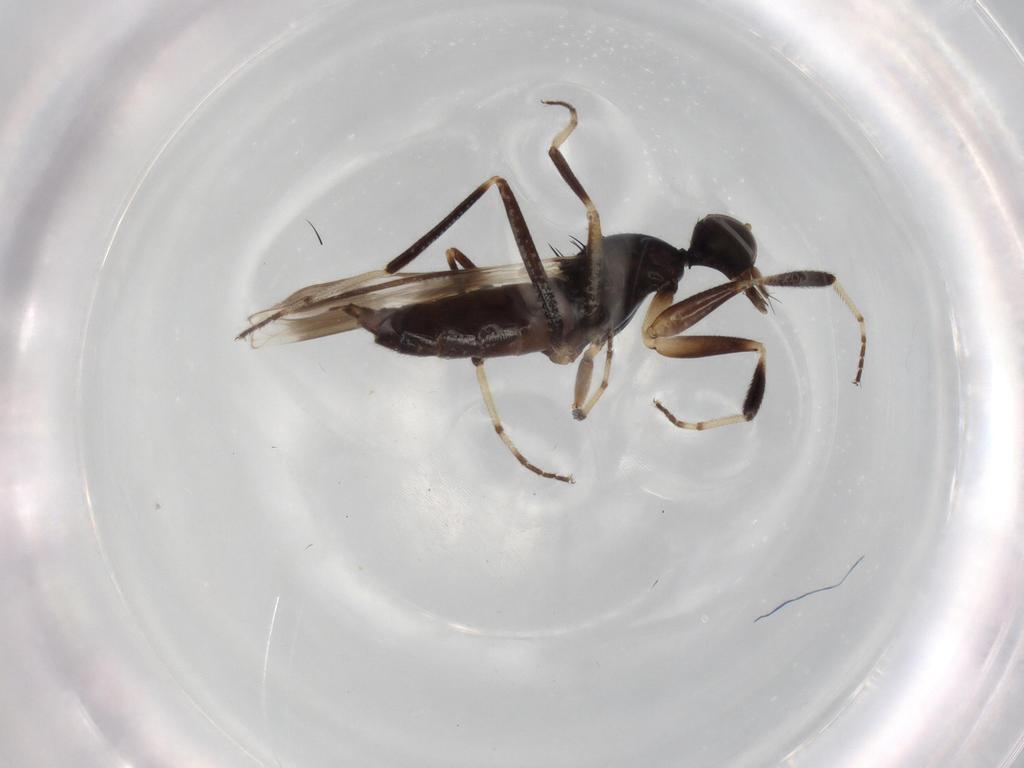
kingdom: Animalia
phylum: Arthropoda
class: Insecta
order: Diptera
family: Hybotidae
